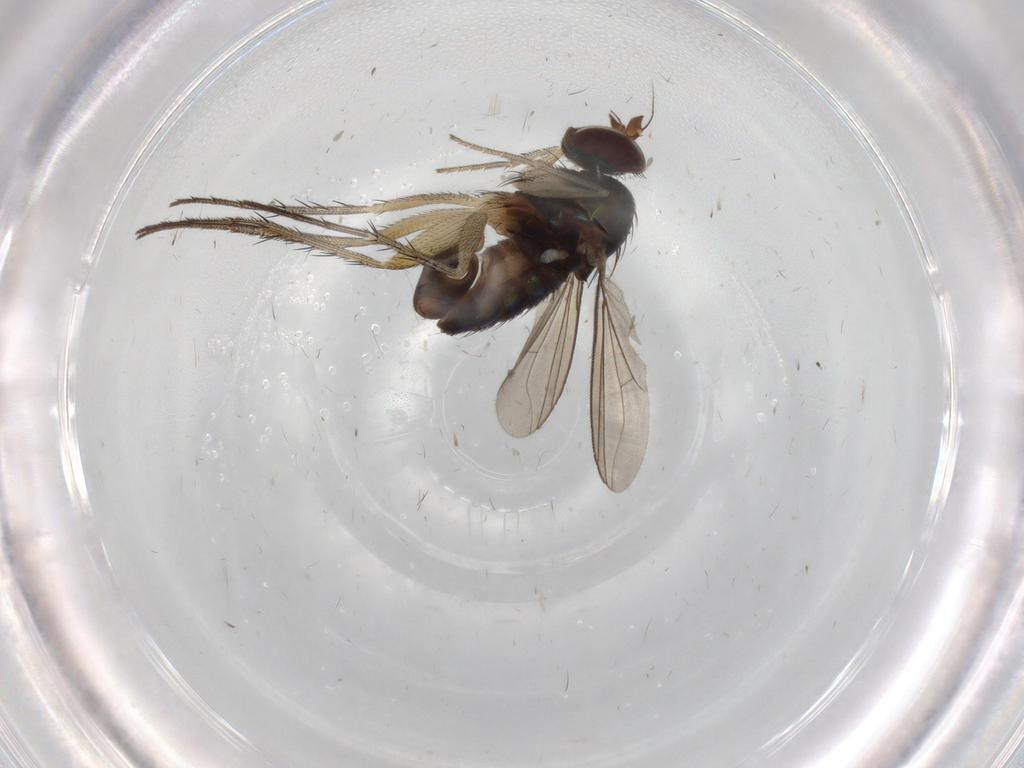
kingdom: Animalia
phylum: Arthropoda
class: Insecta
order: Diptera
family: Dolichopodidae
